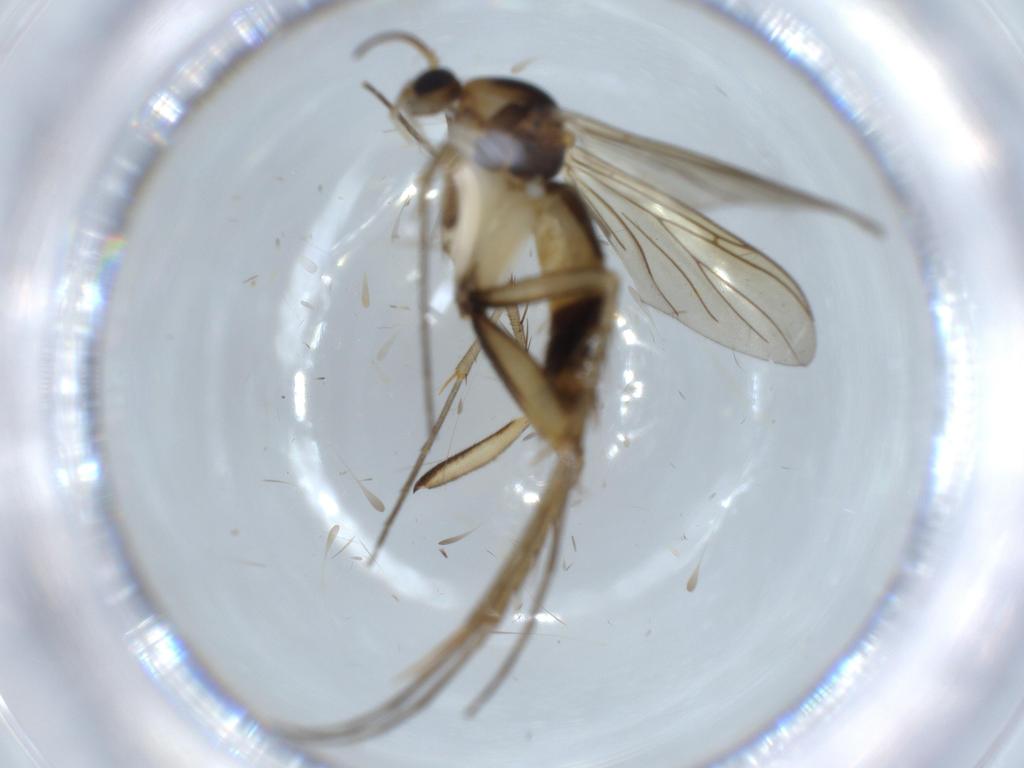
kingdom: Animalia
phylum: Arthropoda
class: Insecta
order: Diptera
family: Mycetophilidae
